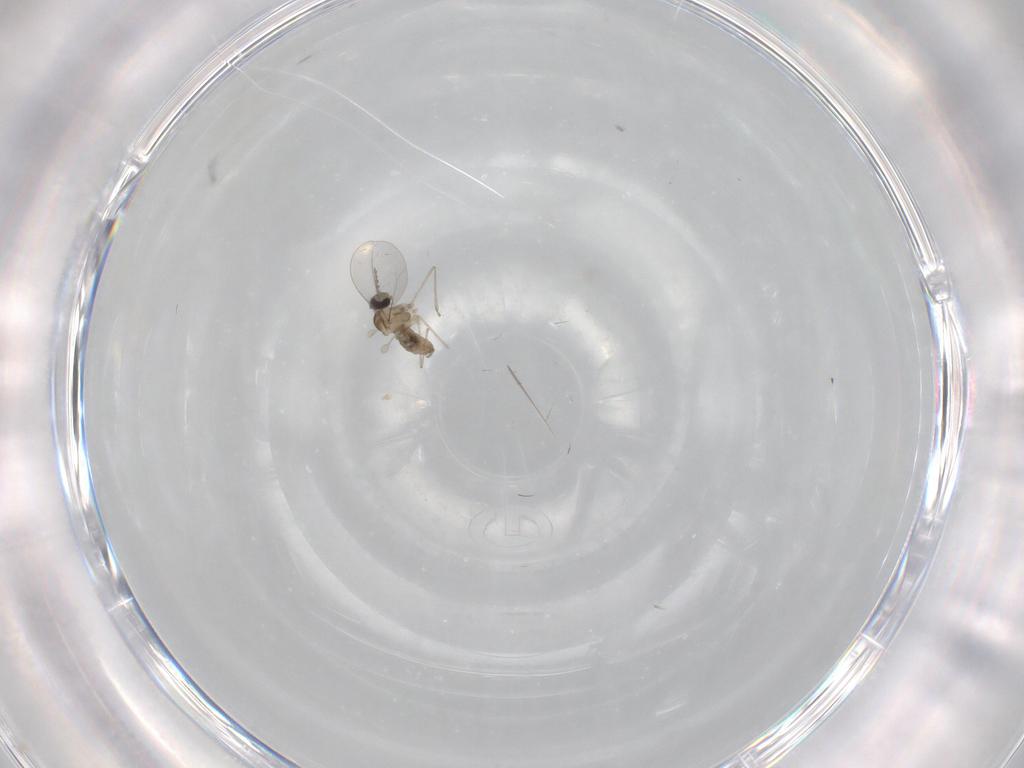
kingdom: Animalia
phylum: Arthropoda
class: Insecta
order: Diptera
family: Cecidomyiidae
